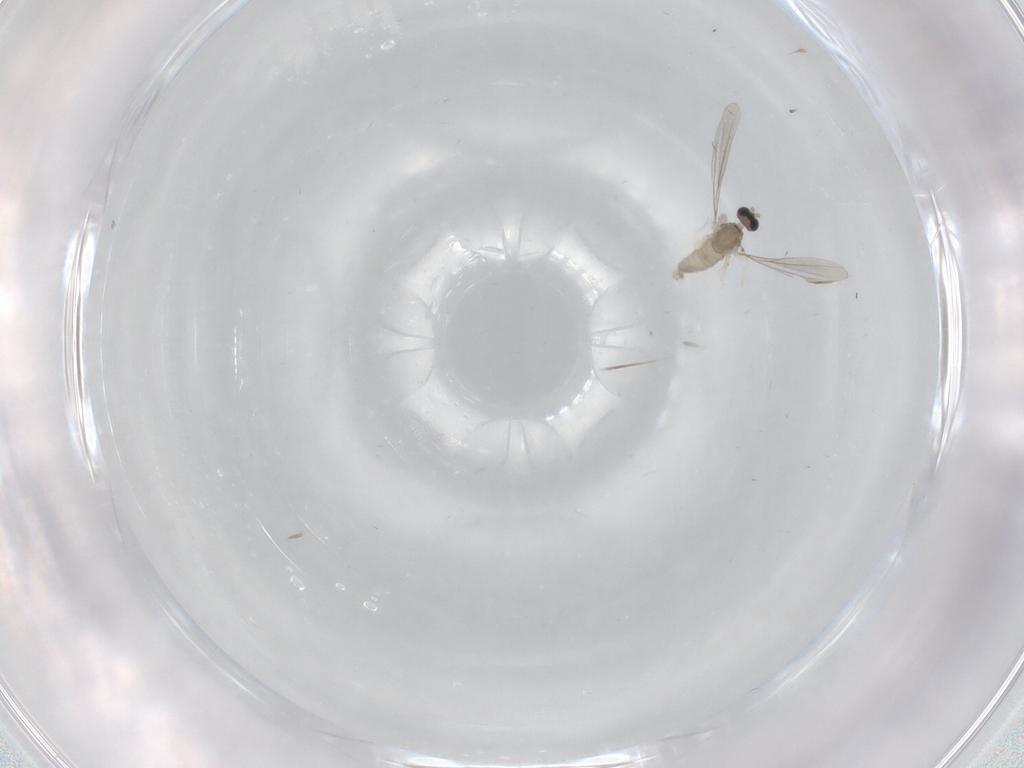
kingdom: Animalia
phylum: Arthropoda
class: Insecta
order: Diptera
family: Cecidomyiidae
